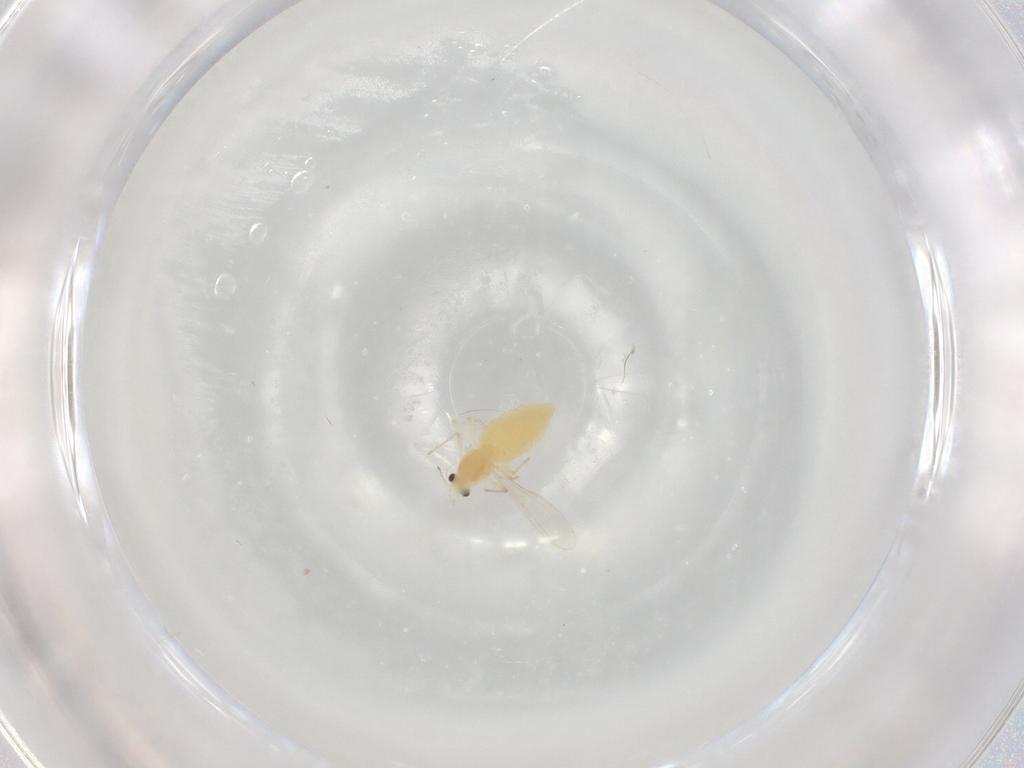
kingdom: Animalia
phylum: Arthropoda
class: Insecta
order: Diptera
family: Chironomidae
